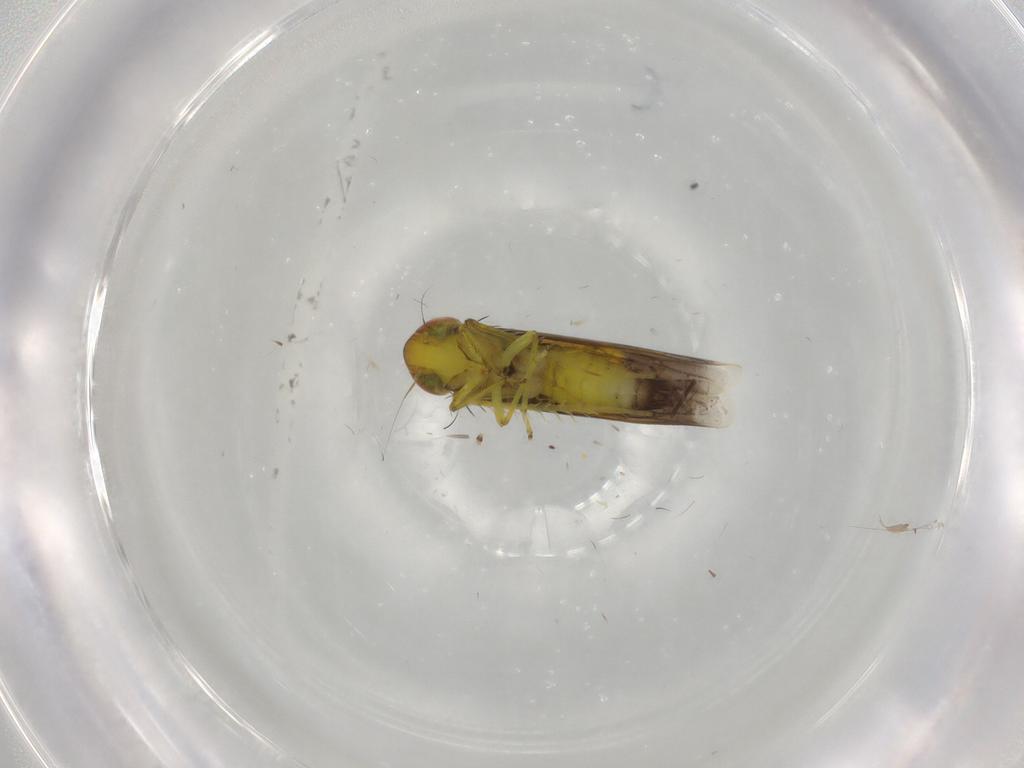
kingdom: Animalia
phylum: Arthropoda
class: Insecta
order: Hemiptera
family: Cicadellidae
